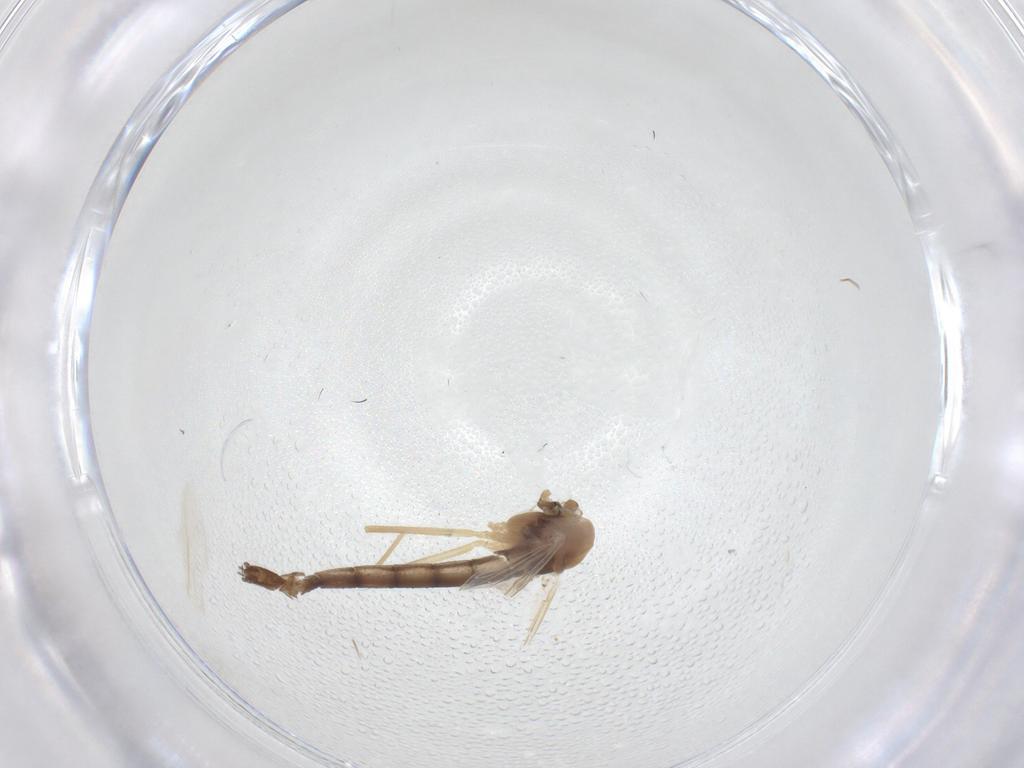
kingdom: Animalia
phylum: Arthropoda
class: Insecta
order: Diptera
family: Chironomidae
